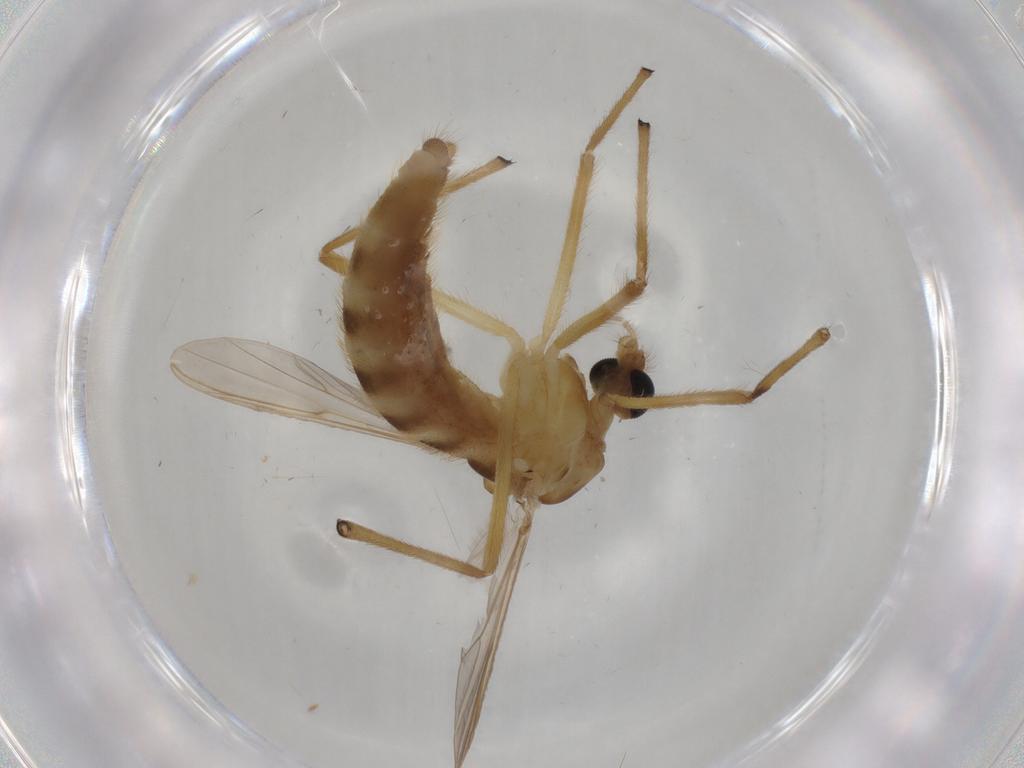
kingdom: Animalia
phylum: Arthropoda
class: Insecta
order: Diptera
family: Chironomidae
